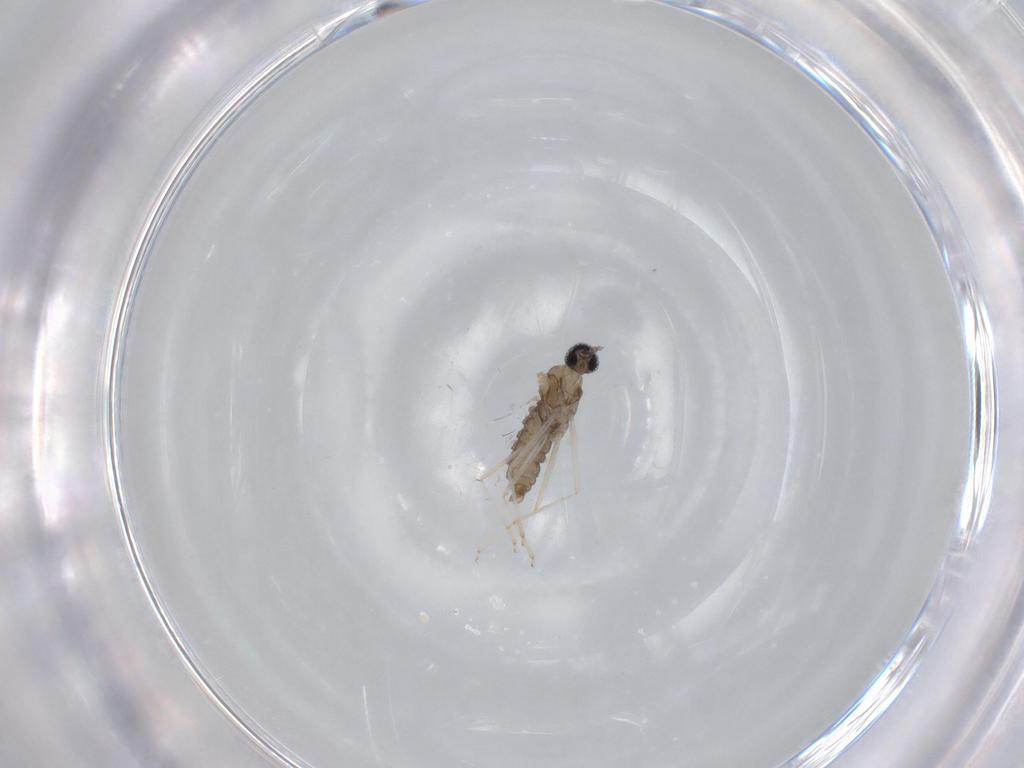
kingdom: Animalia
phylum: Arthropoda
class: Insecta
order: Diptera
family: Cecidomyiidae
